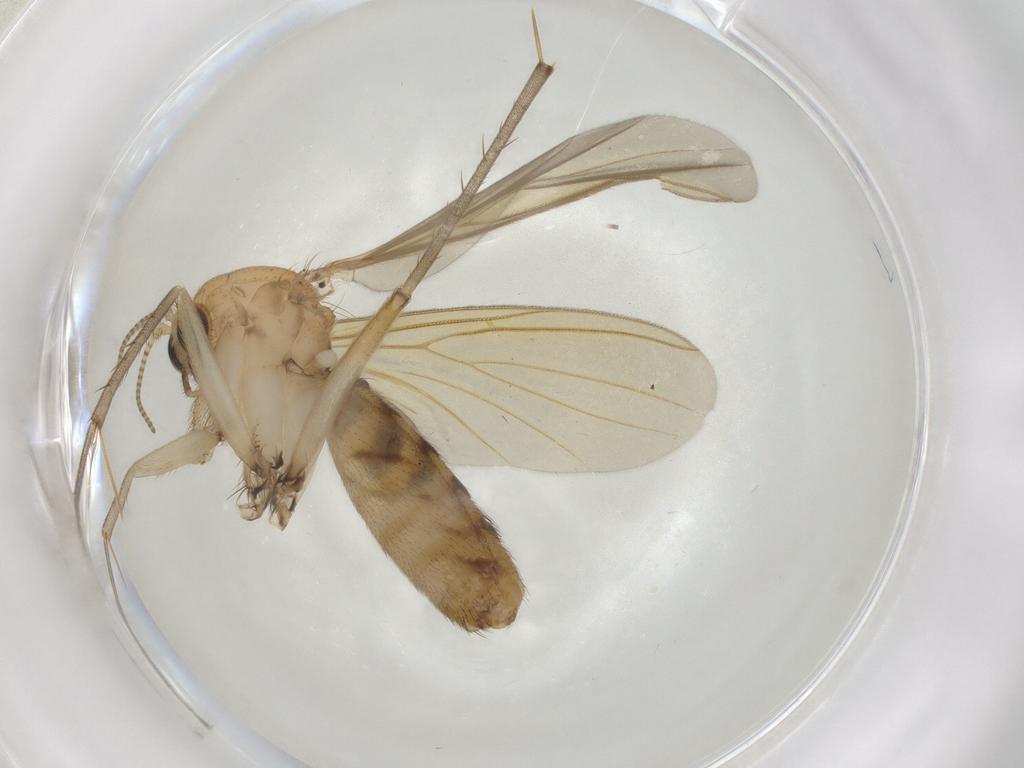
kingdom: Animalia
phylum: Arthropoda
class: Insecta
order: Diptera
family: Mycetophilidae
